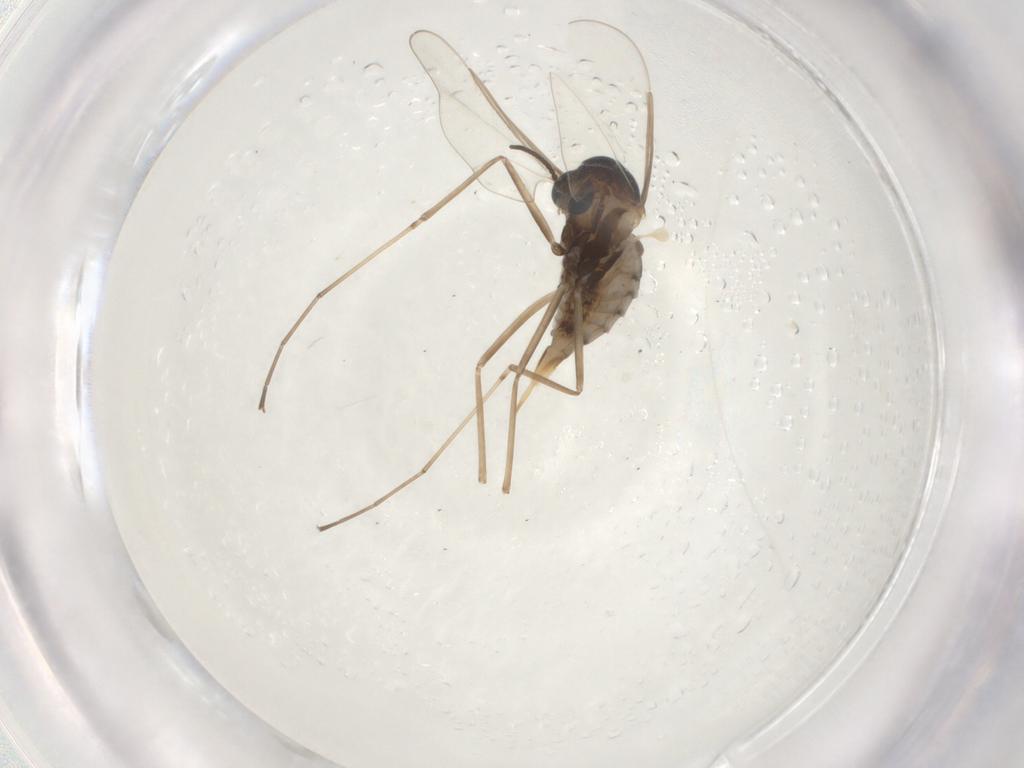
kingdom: Animalia
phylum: Arthropoda
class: Insecta
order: Diptera
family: Cecidomyiidae
